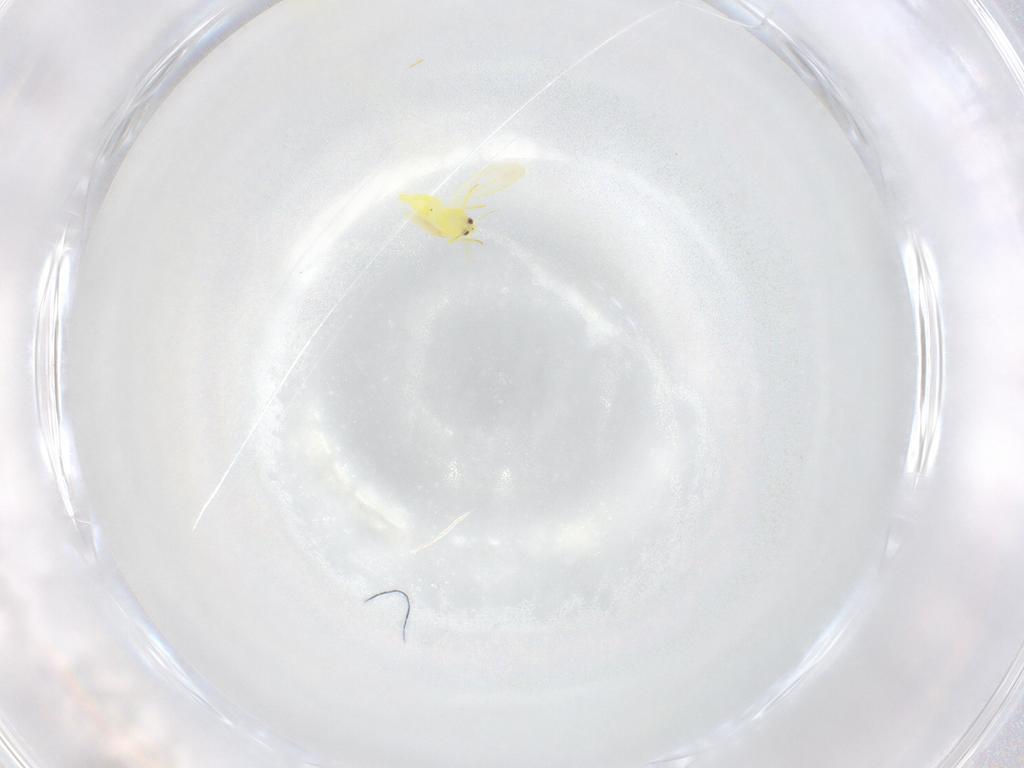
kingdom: Animalia
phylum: Arthropoda
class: Insecta
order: Hemiptera
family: Aleyrodidae
